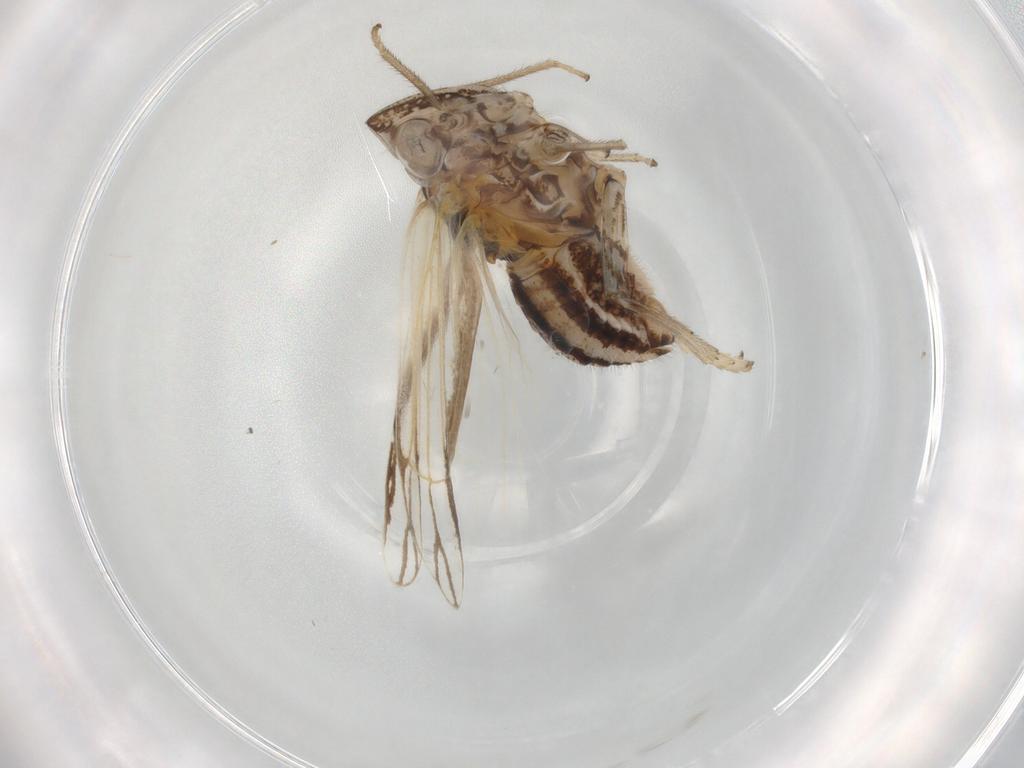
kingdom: Animalia
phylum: Arthropoda
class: Insecta
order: Hemiptera
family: Caliscelidae
